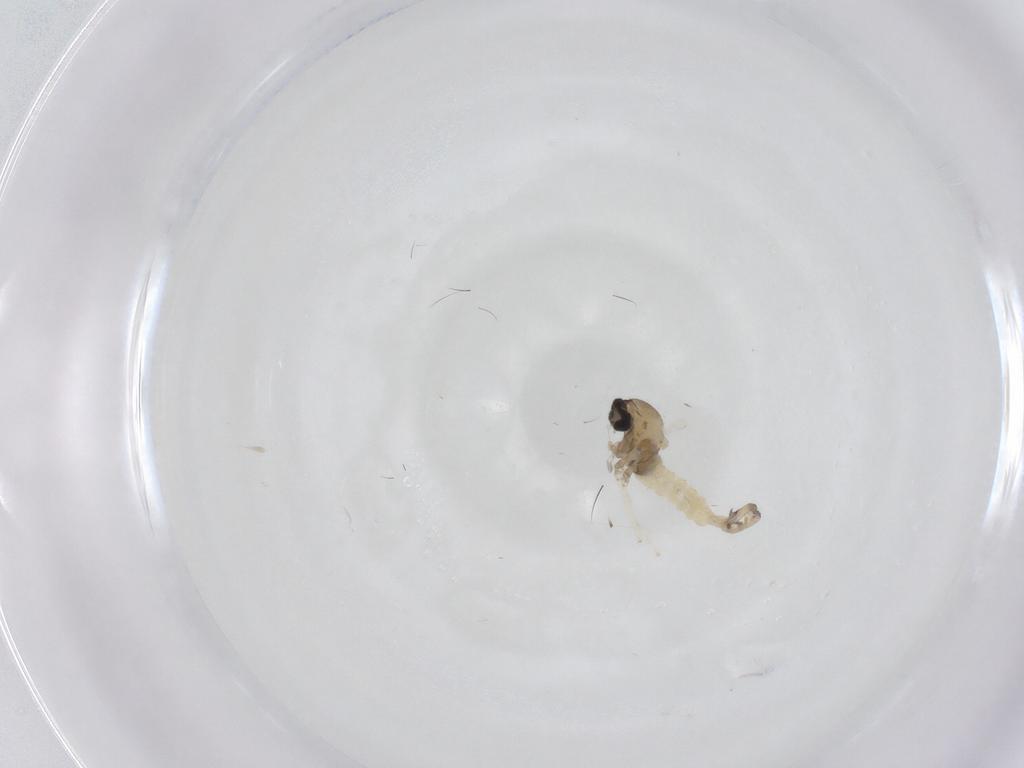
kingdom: Animalia
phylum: Arthropoda
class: Insecta
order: Diptera
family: Cecidomyiidae
